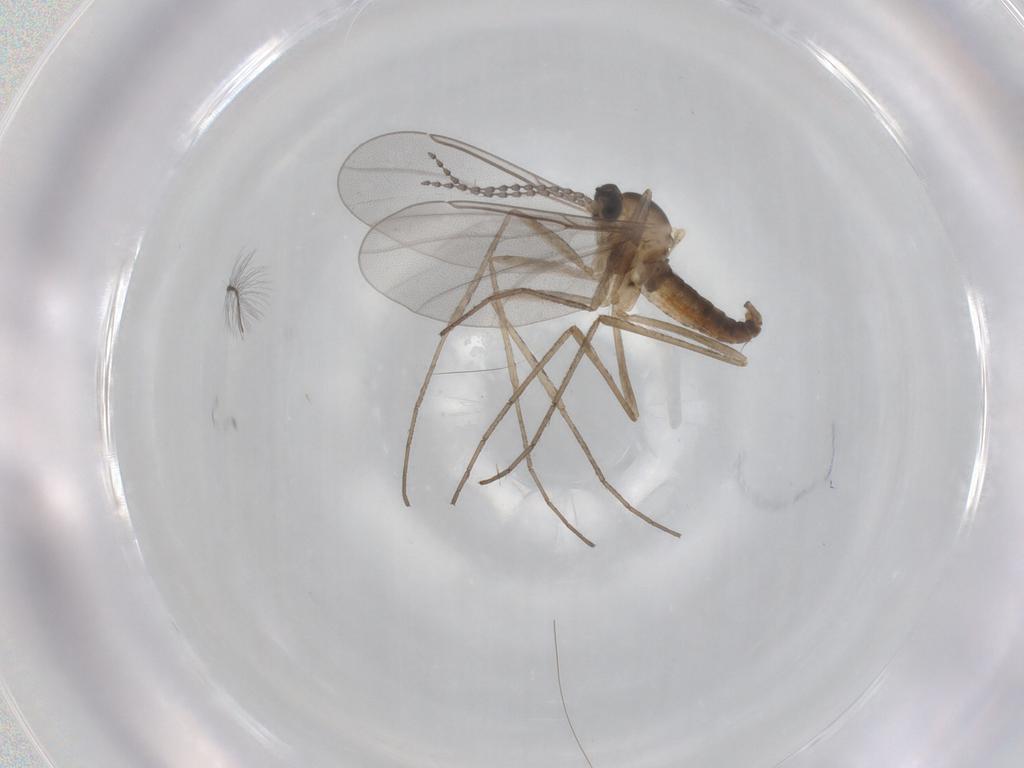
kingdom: Animalia
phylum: Arthropoda
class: Insecta
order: Diptera
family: Cecidomyiidae
